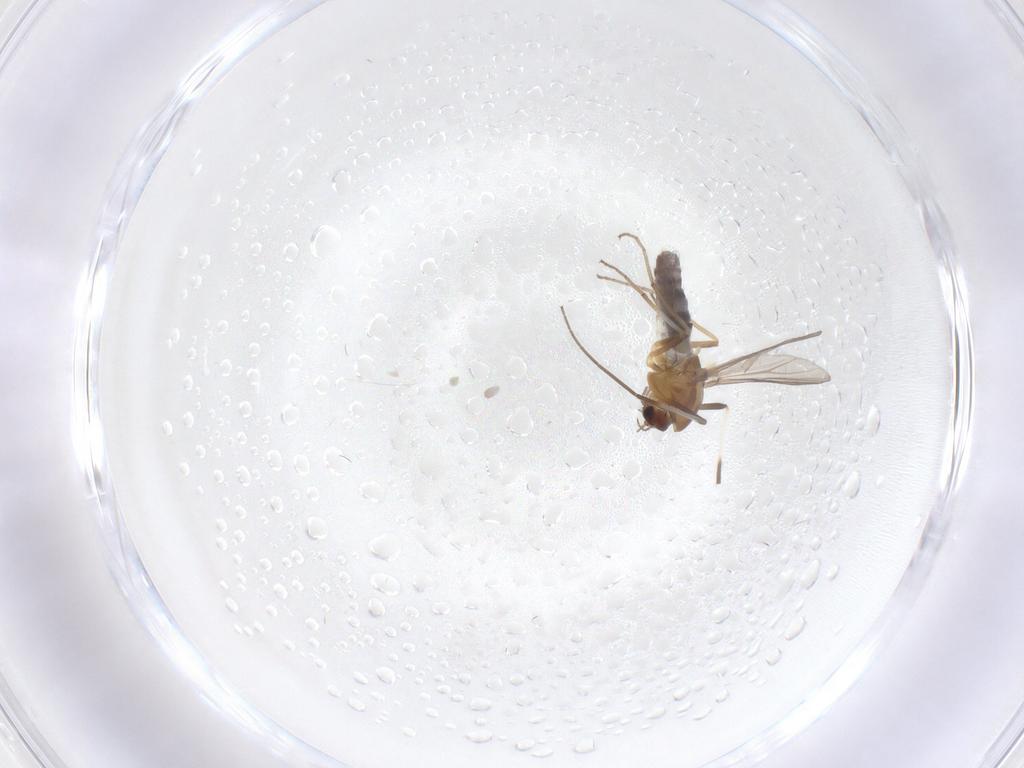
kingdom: Animalia
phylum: Arthropoda
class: Insecta
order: Diptera
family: Chironomidae
